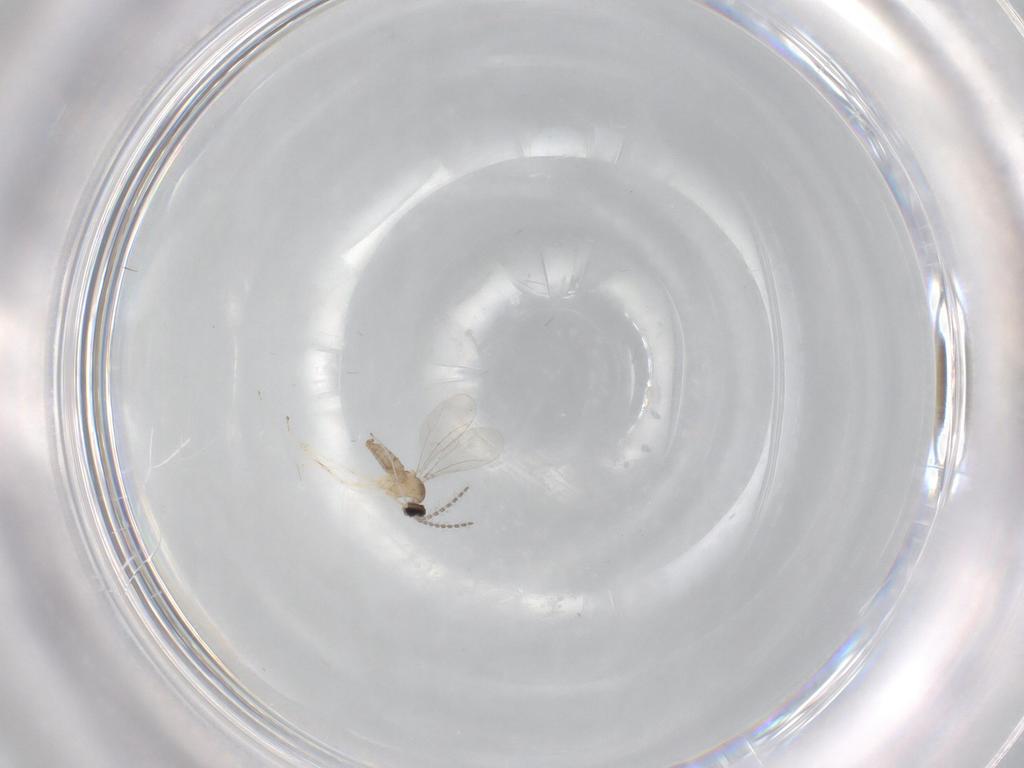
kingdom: Animalia
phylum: Arthropoda
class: Insecta
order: Diptera
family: Cecidomyiidae
